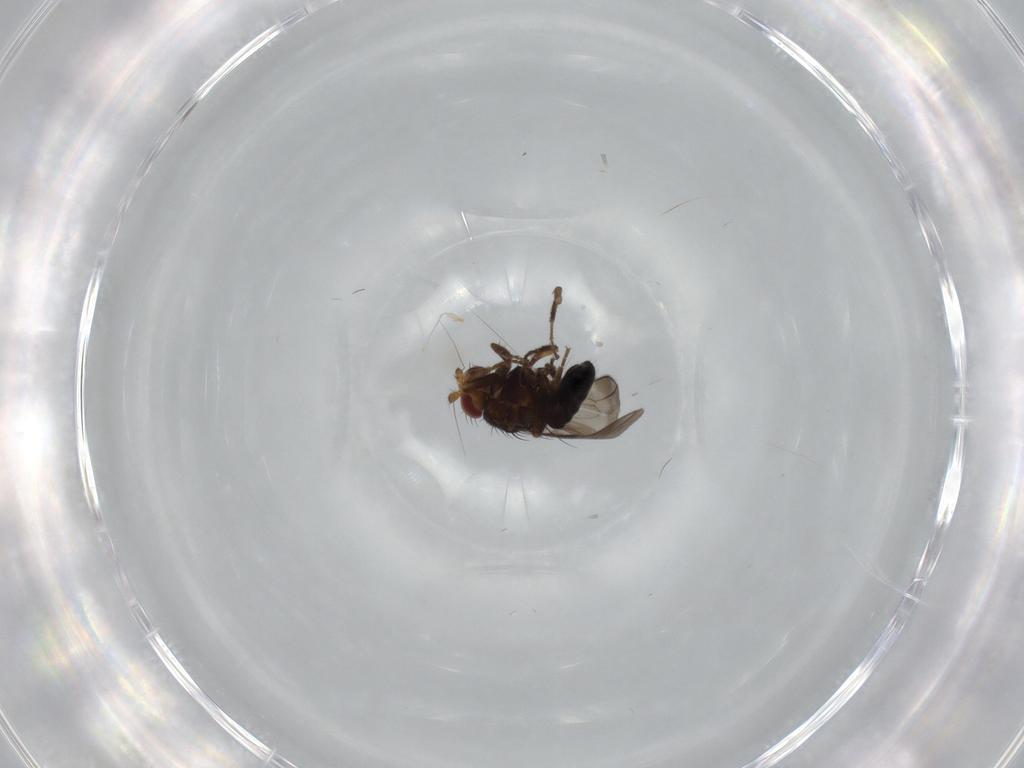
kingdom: Animalia
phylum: Arthropoda
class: Insecta
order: Diptera
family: Sphaeroceridae
